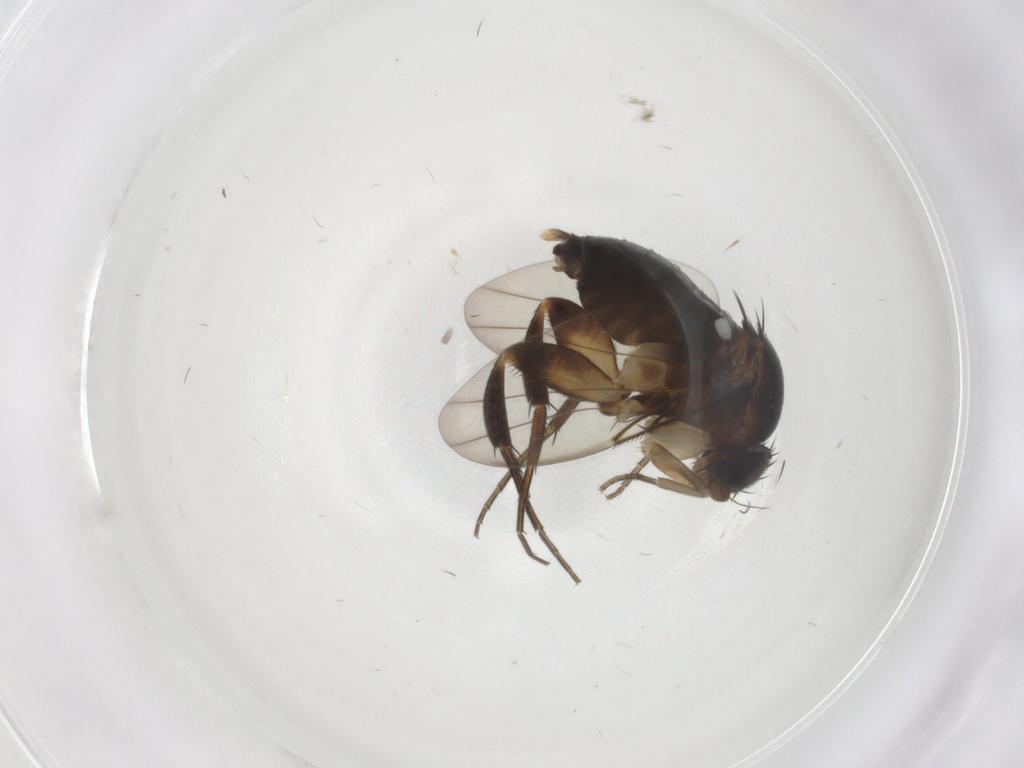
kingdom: Animalia
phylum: Arthropoda
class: Insecta
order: Diptera
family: Phoridae
